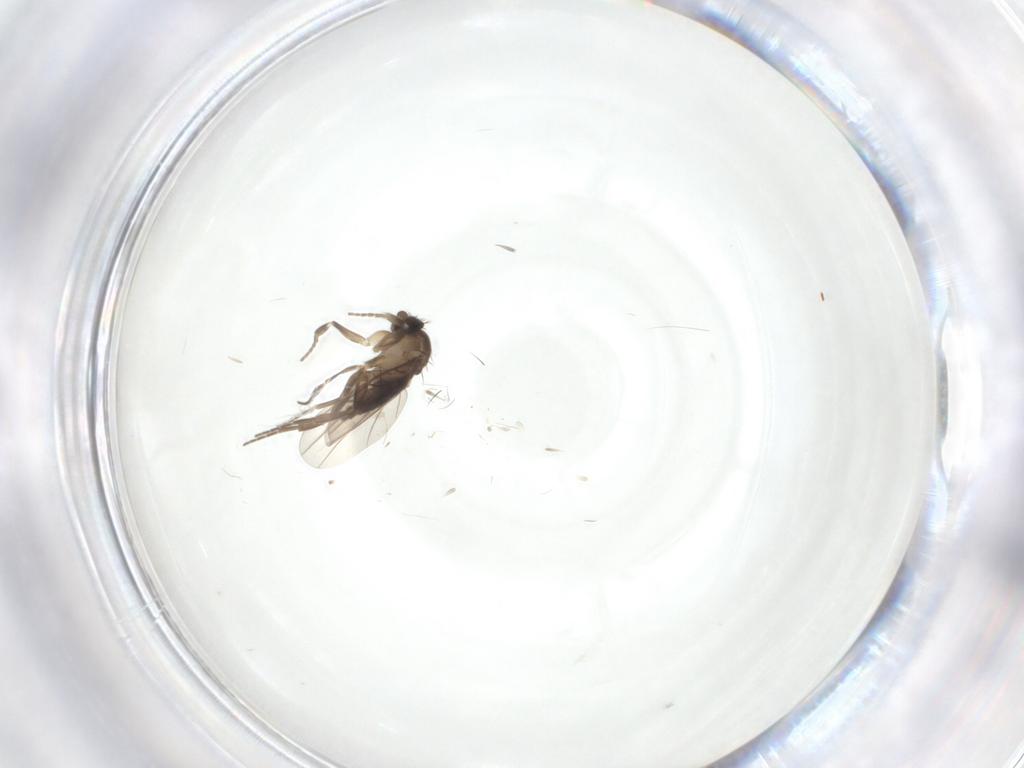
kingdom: Animalia
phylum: Arthropoda
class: Insecta
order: Diptera
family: Phoridae
